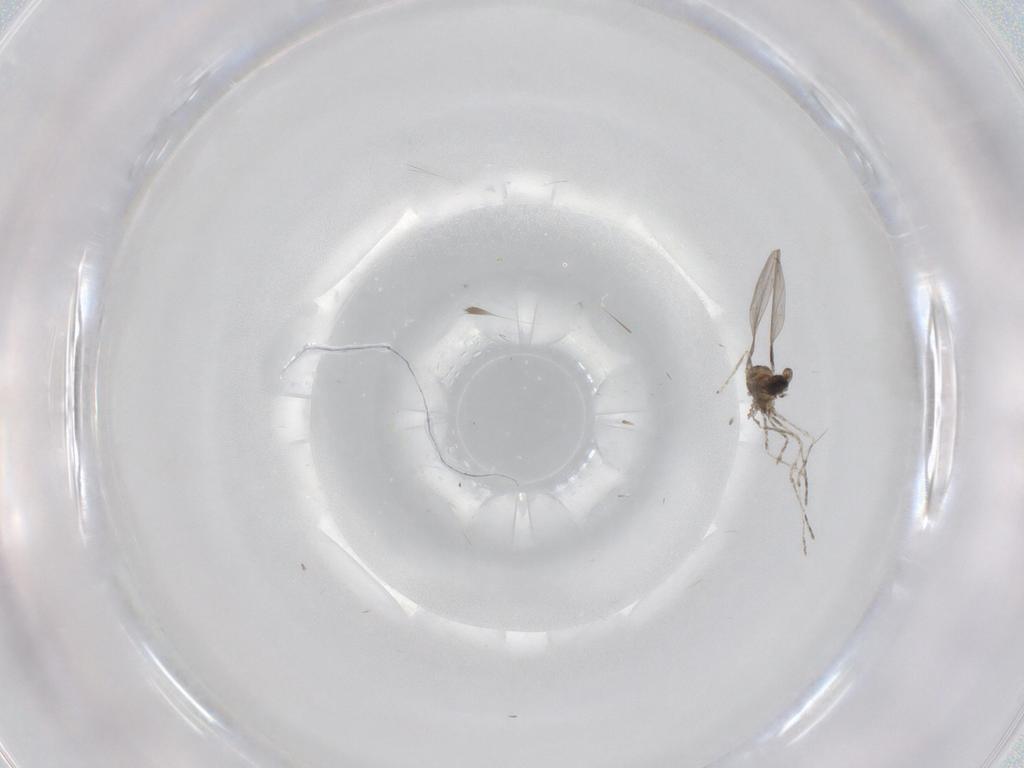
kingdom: Animalia
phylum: Arthropoda
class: Insecta
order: Diptera
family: Cecidomyiidae
